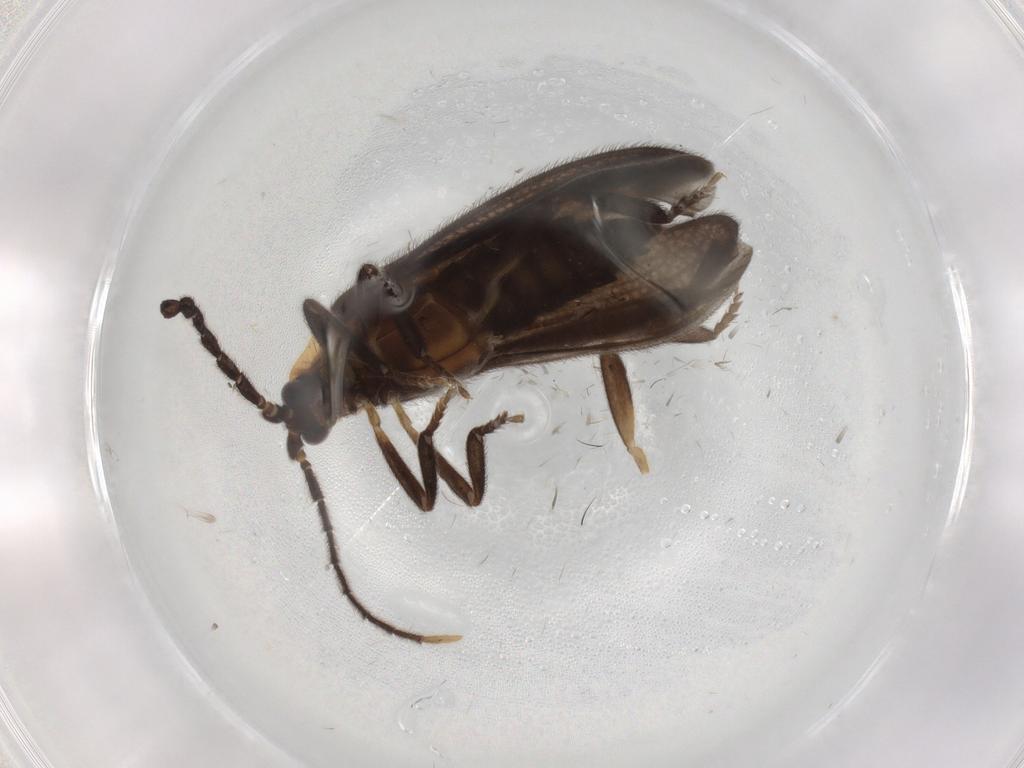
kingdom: Animalia
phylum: Arthropoda
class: Insecta
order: Coleoptera
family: Lycidae
